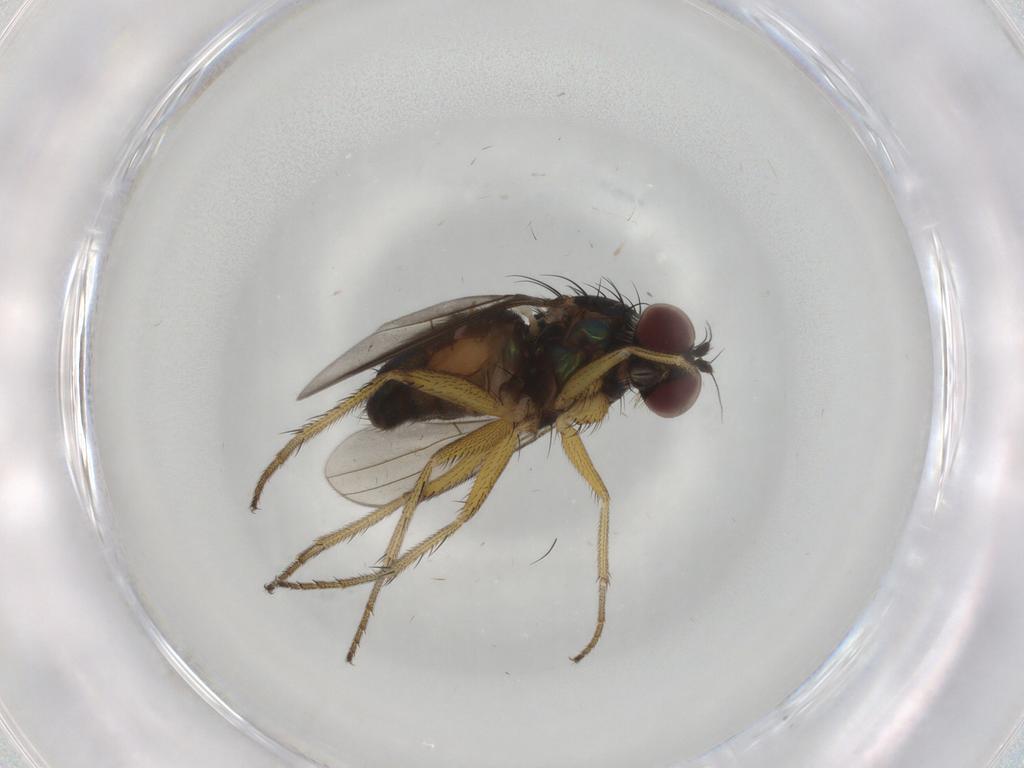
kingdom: Animalia
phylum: Arthropoda
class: Insecta
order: Diptera
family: Dolichopodidae
